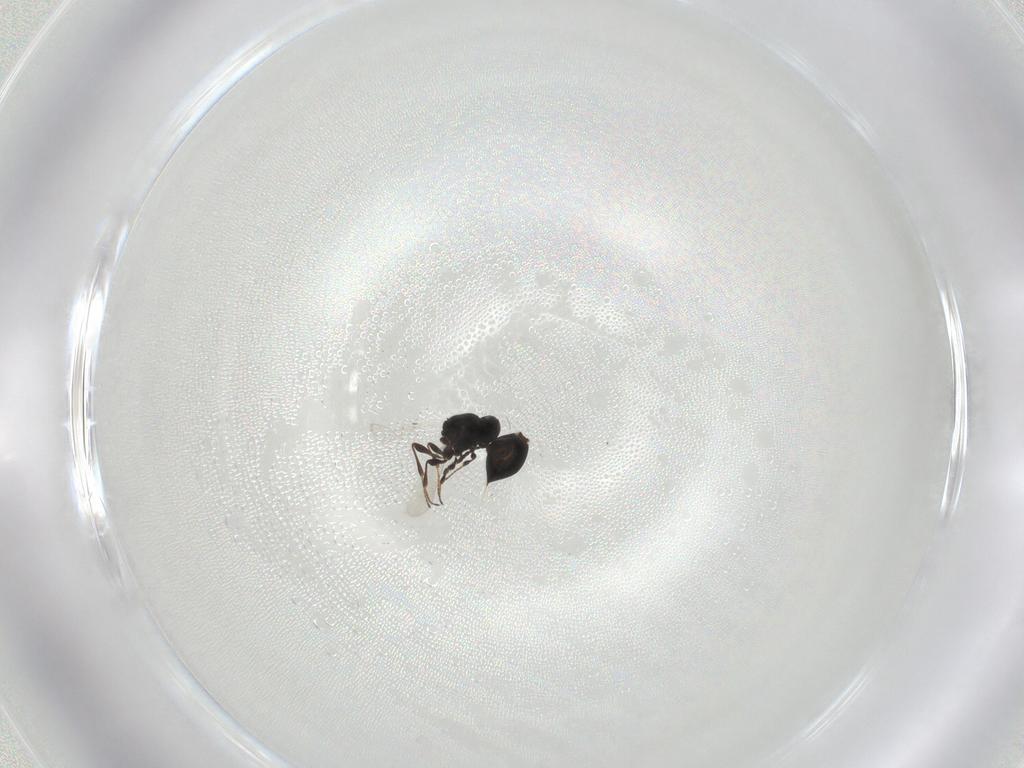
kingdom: Animalia
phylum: Arthropoda
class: Insecta
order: Hymenoptera
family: Platygastridae
